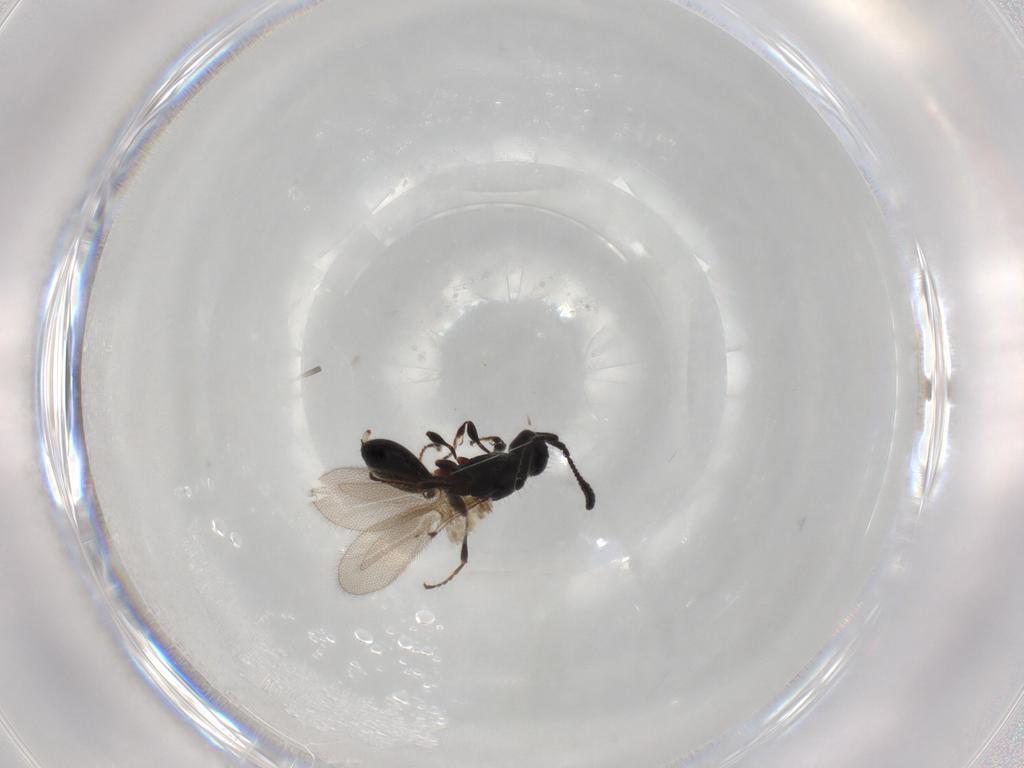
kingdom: Animalia
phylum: Arthropoda
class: Insecta
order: Hymenoptera
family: Diapriidae
